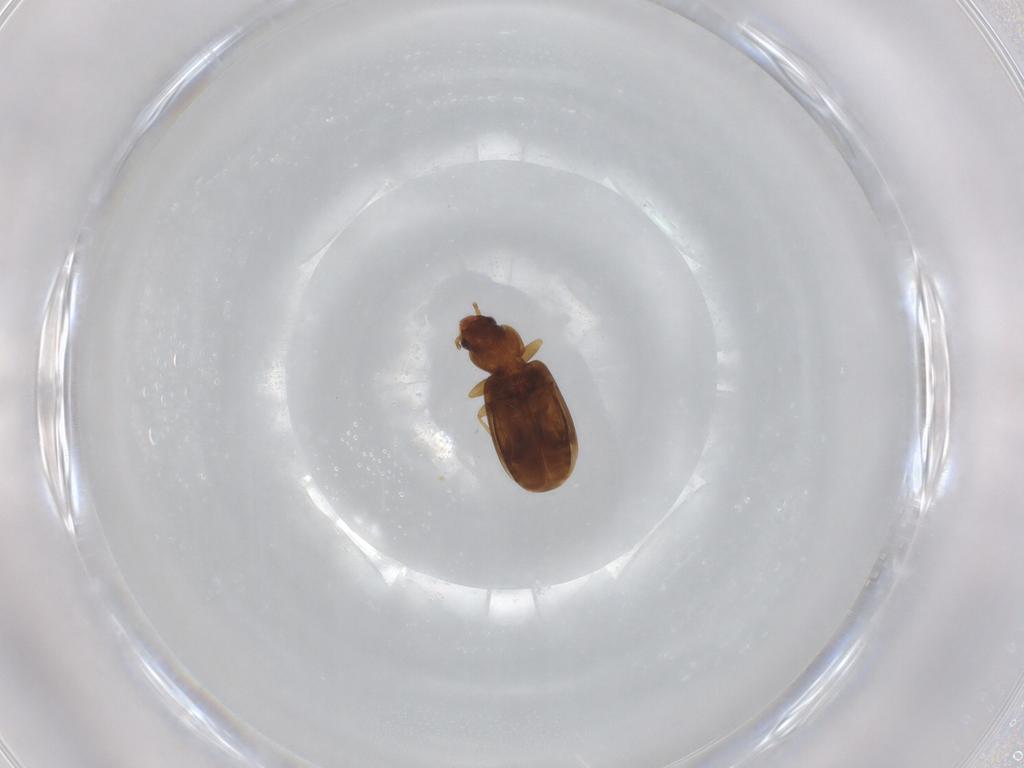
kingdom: Animalia
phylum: Arthropoda
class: Insecta
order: Coleoptera
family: Carabidae
